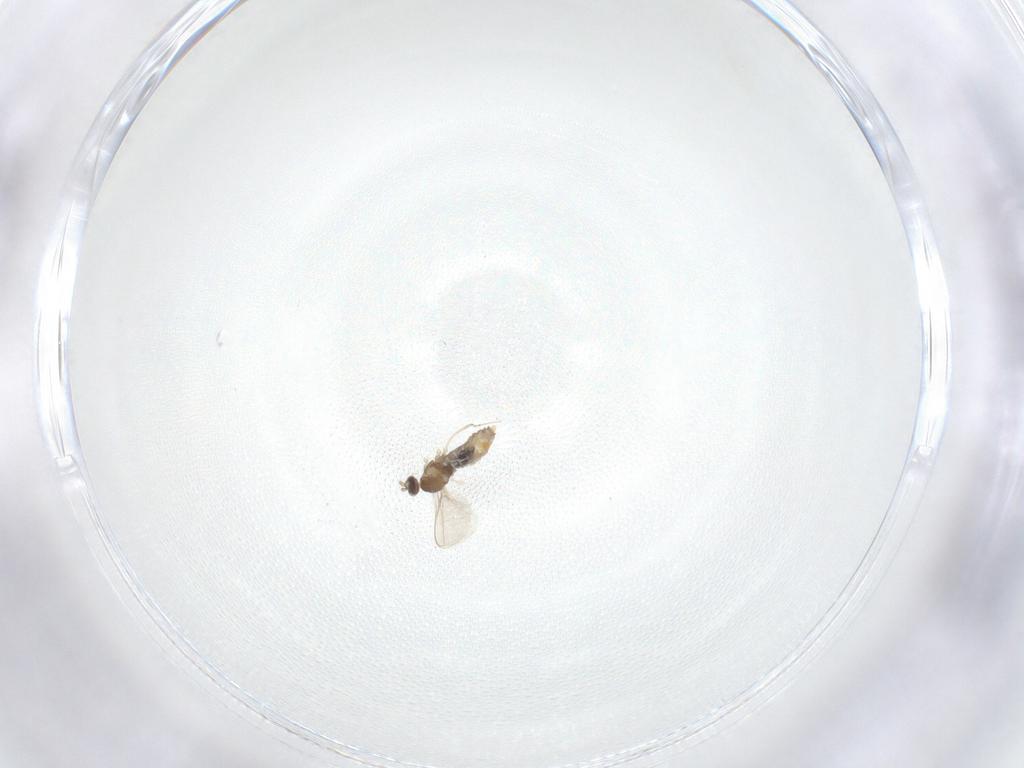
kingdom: Animalia
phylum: Arthropoda
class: Insecta
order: Diptera
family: Cecidomyiidae
